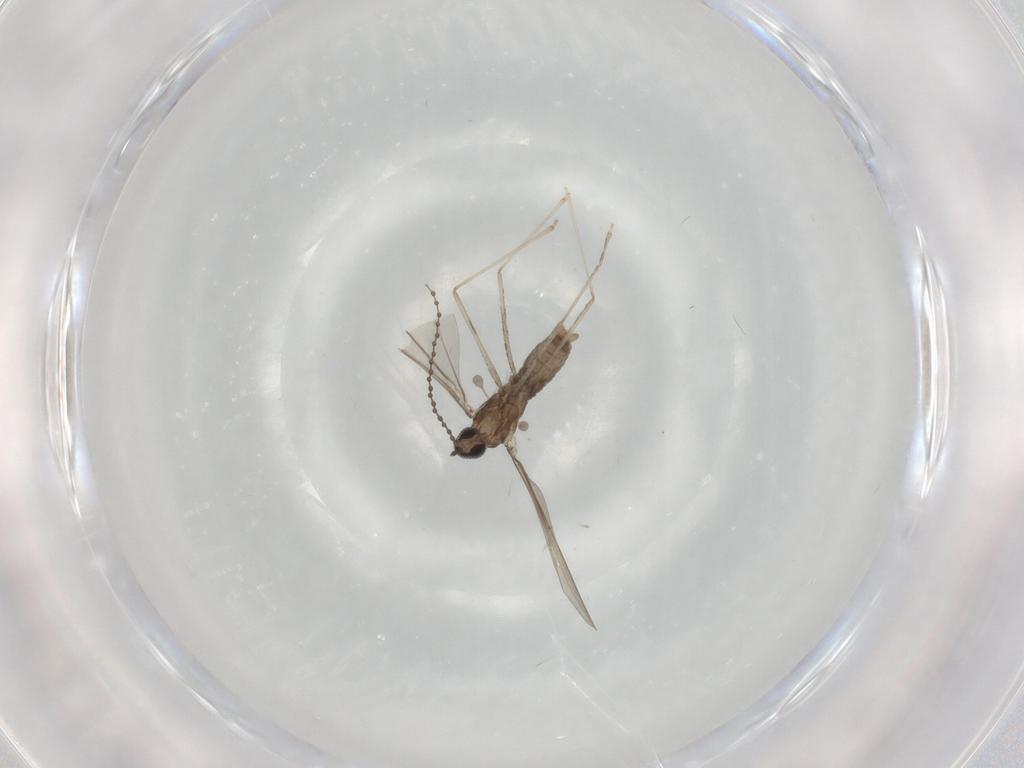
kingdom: Animalia
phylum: Arthropoda
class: Insecta
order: Diptera
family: Cecidomyiidae
